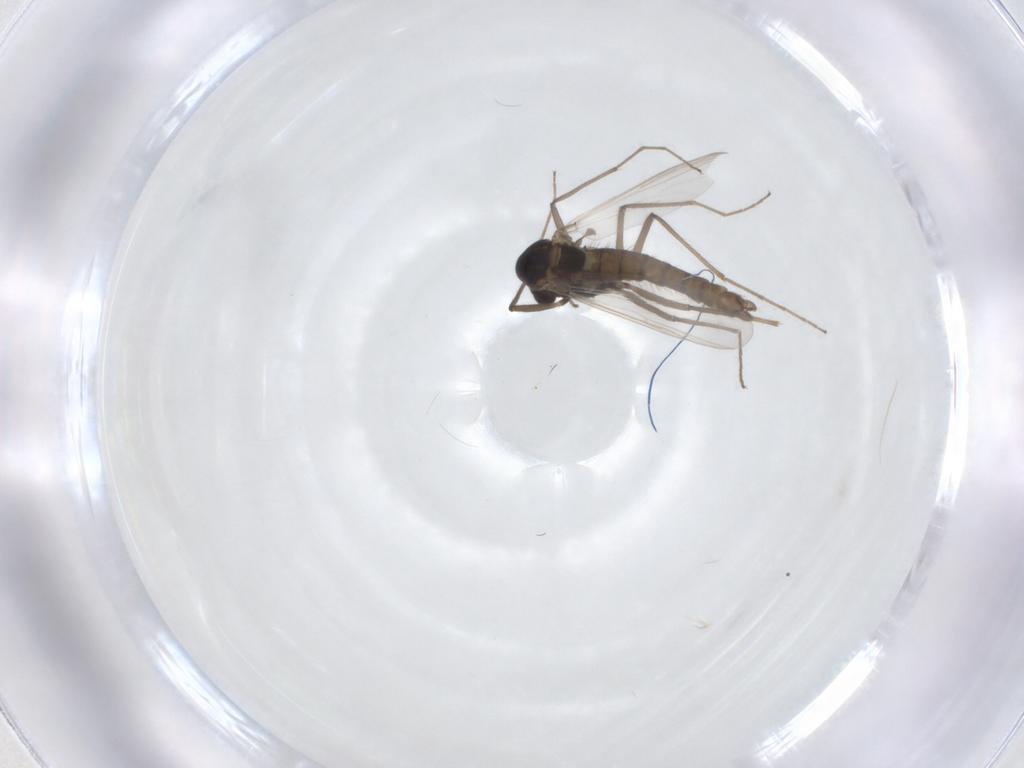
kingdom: Animalia
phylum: Arthropoda
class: Insecta
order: Diptera
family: Chironomidae
